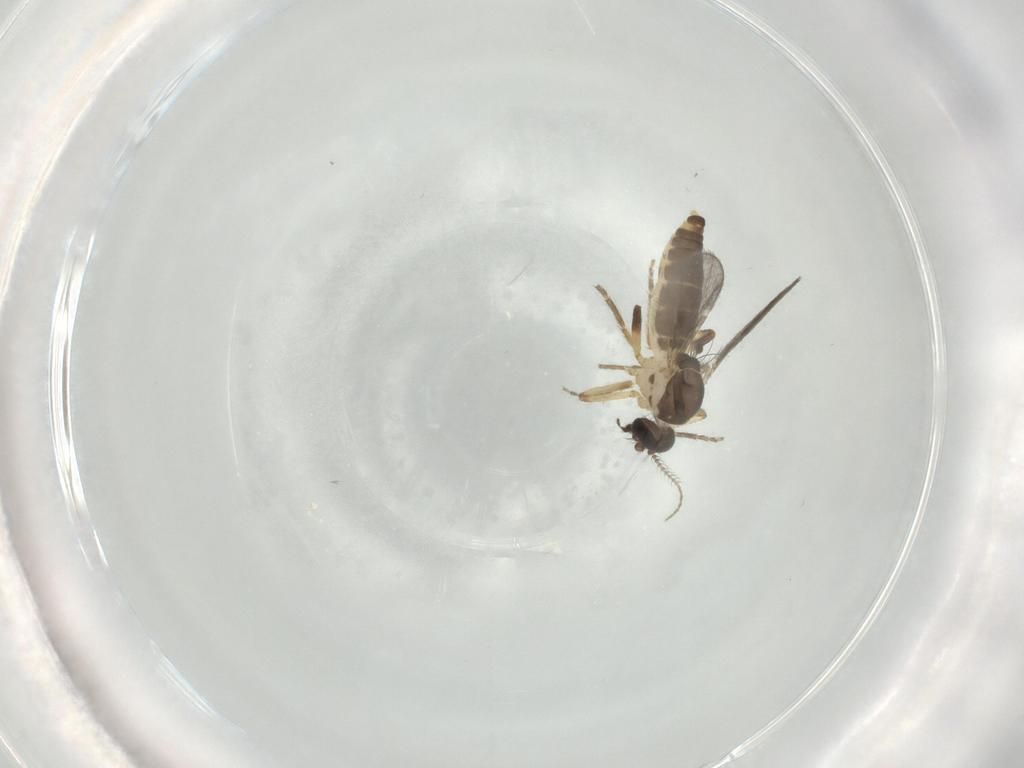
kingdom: Animalia
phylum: Arthropoda
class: Insecta
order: Diptera
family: Ceratopogonidae
